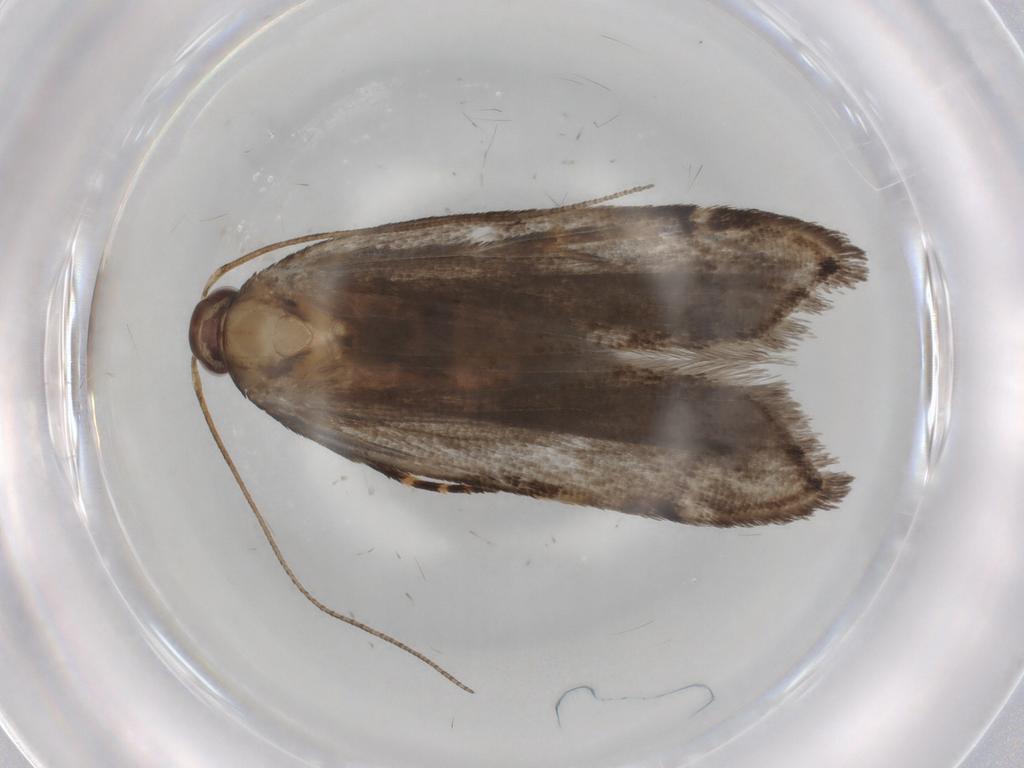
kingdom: Animalia
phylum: Arthropoda
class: Insecta
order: Lepidoptera
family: Gelechiidae
